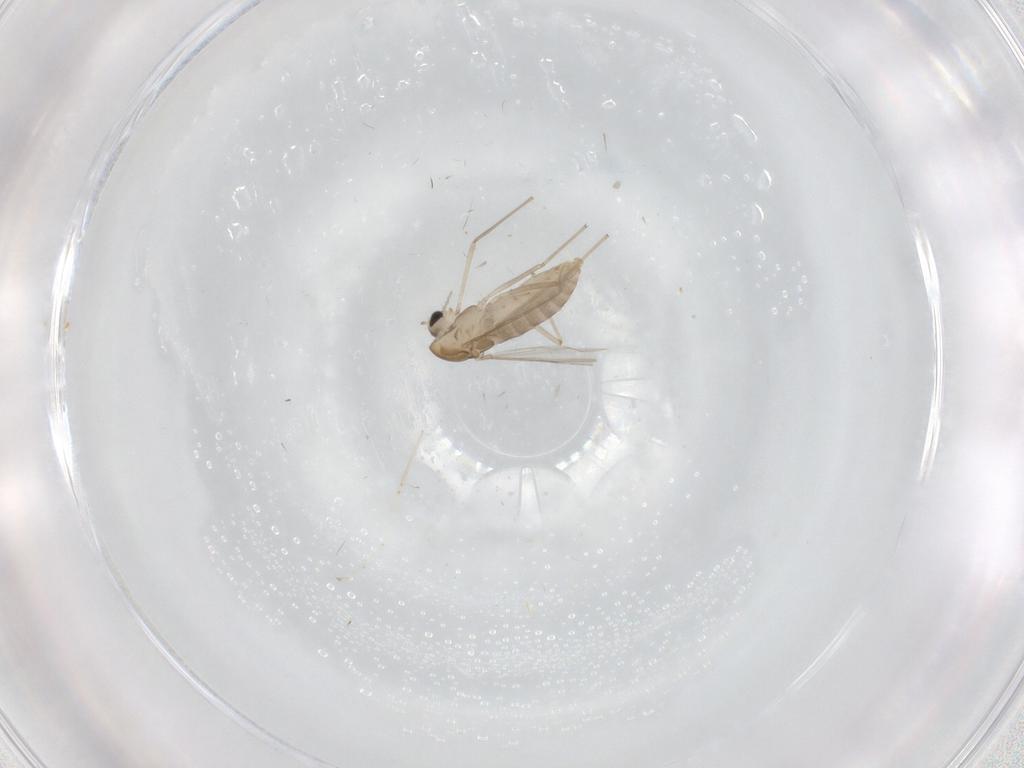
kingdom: Animalia
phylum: Arthropoda
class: Insecta
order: Diptera
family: Chironomidae
